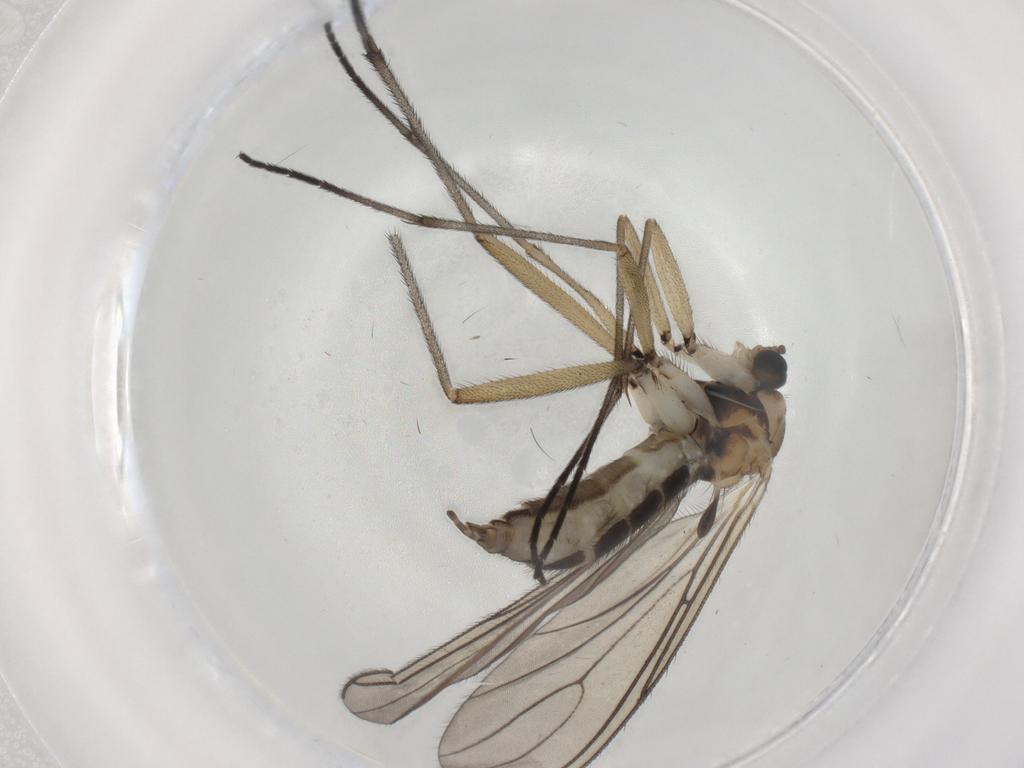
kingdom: Animalia
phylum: Arthropoda
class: Insecta
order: Diptera
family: Sciaridae
